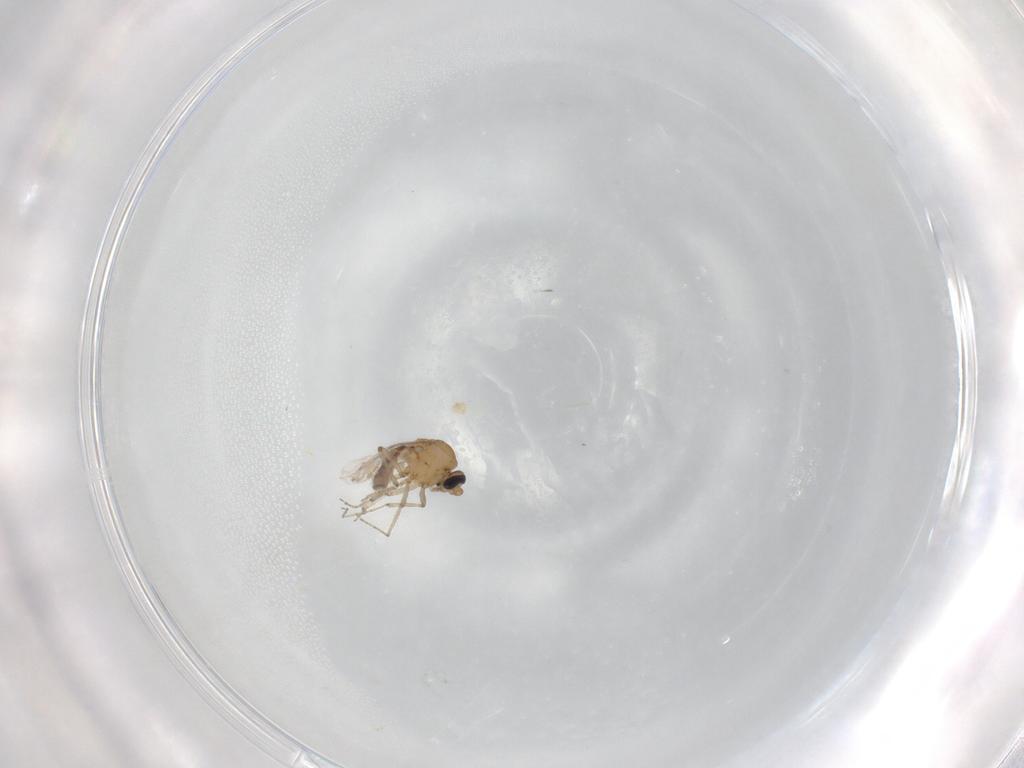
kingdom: Animalia
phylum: Arthropoda
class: Insecta
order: Diptera
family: Ceratopogonidae
